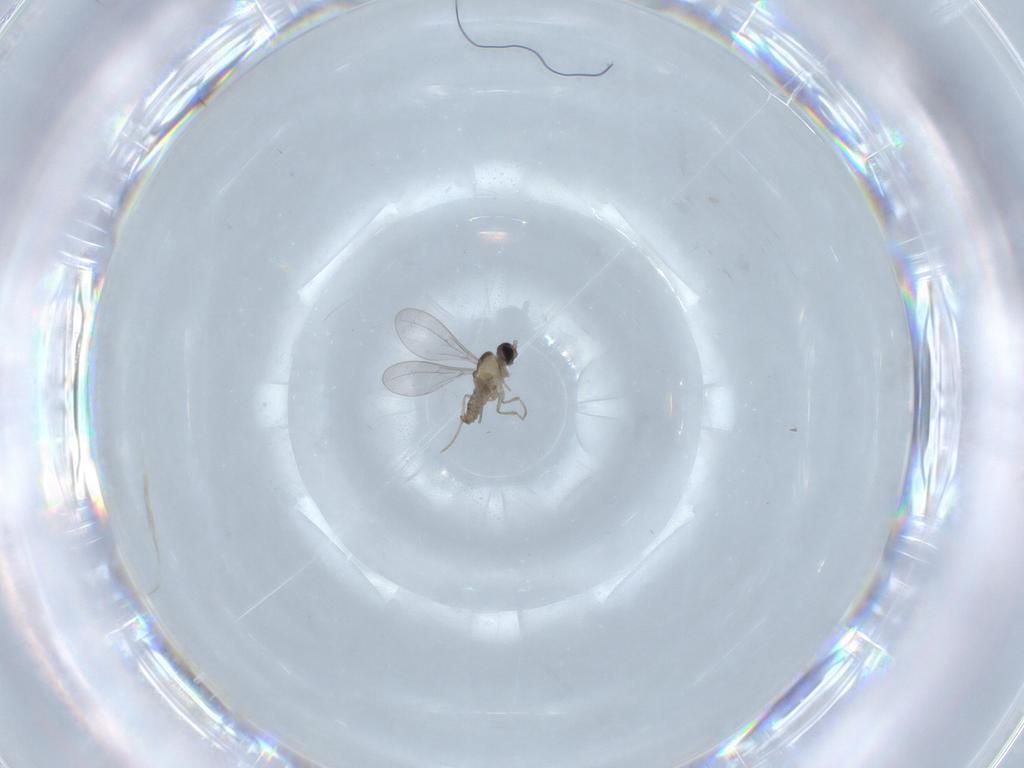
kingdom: Animalia
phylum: Arthropoda
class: Insecta
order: Diptera
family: Cecidomyiidae
